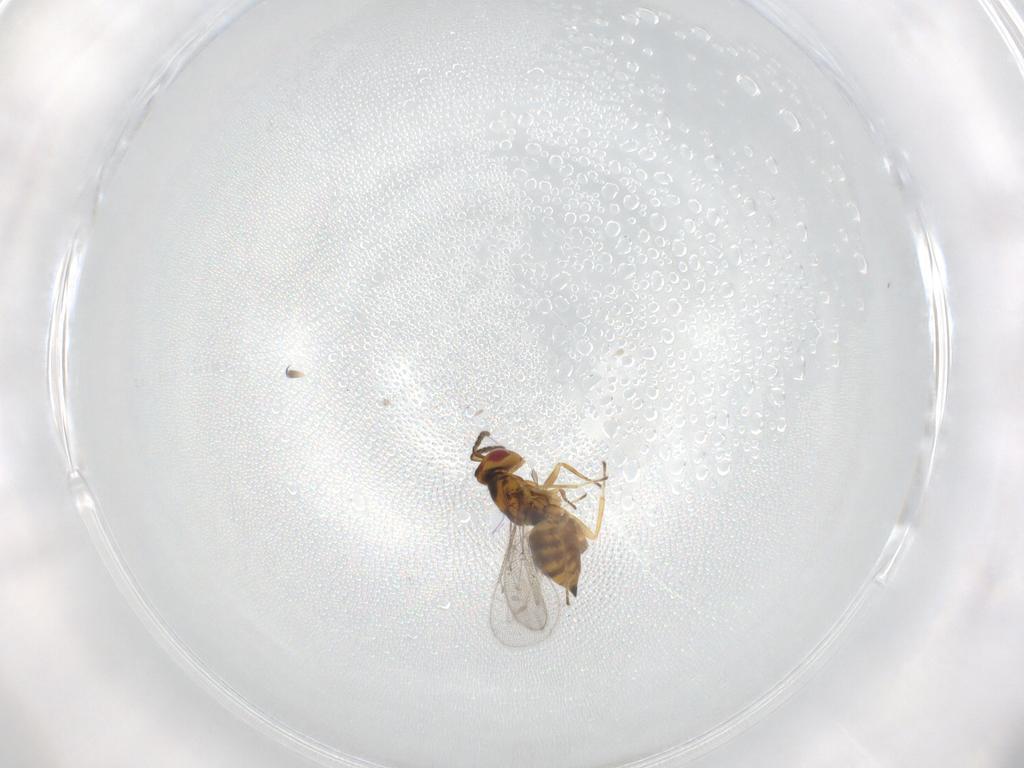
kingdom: Animalia
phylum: Arthropoda
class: Insecta
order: Hymenoptera
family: Eulophidae
